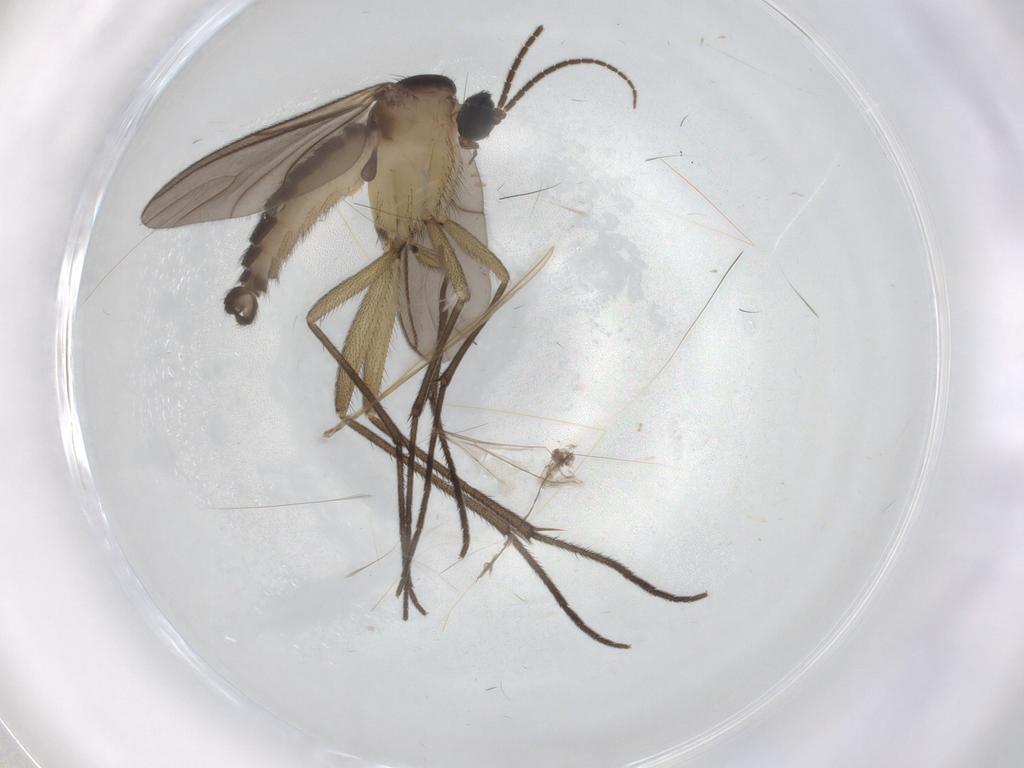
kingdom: Animalia
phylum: Arthropoda
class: Insecta
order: Diptera
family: Sciaridae
